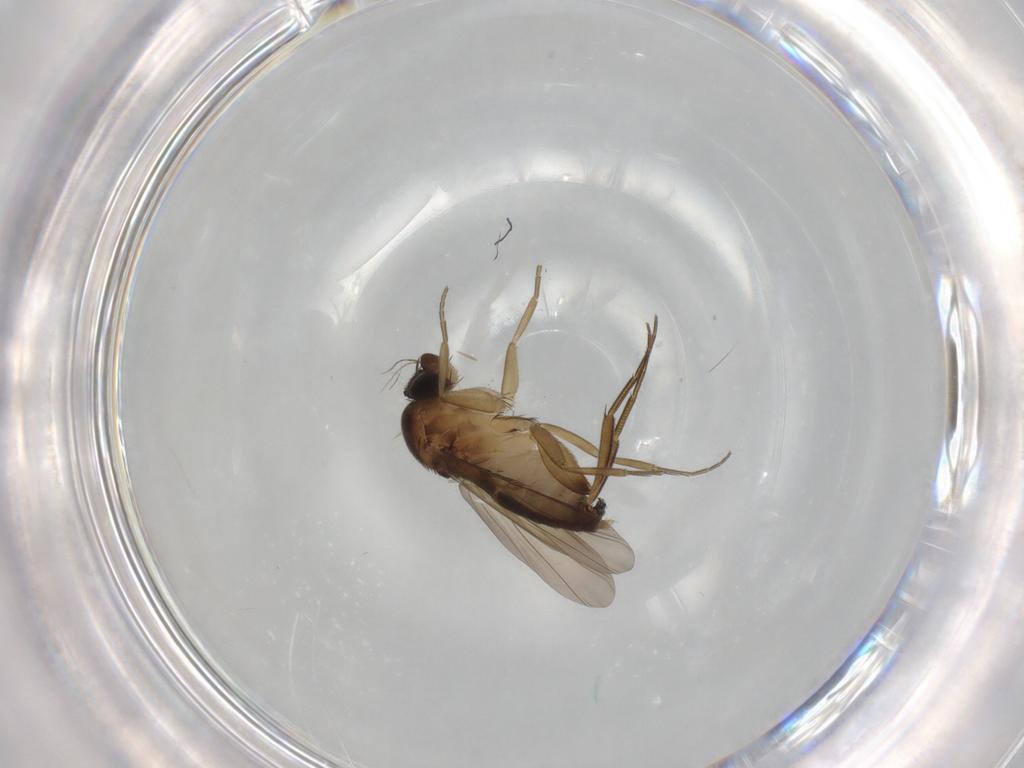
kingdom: Animalia
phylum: Arthropoda
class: Insecta
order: Diptera
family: Phoridae
